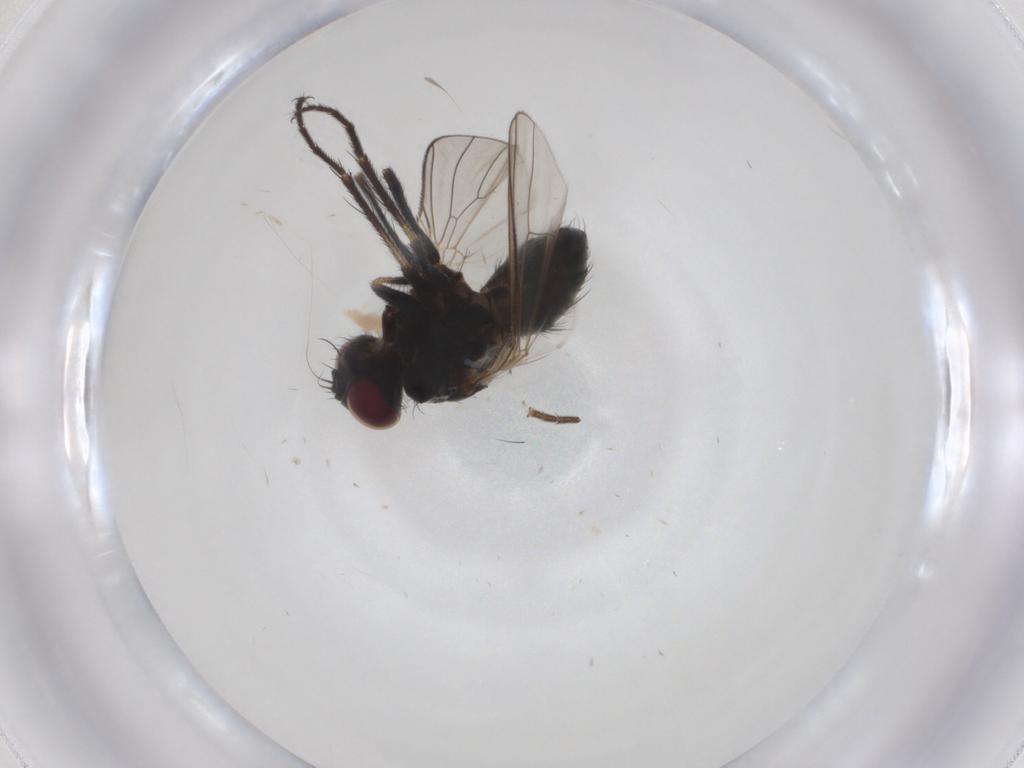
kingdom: Animalia
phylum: Arthropoda
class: Insecta
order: Diptera
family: Muscidae
